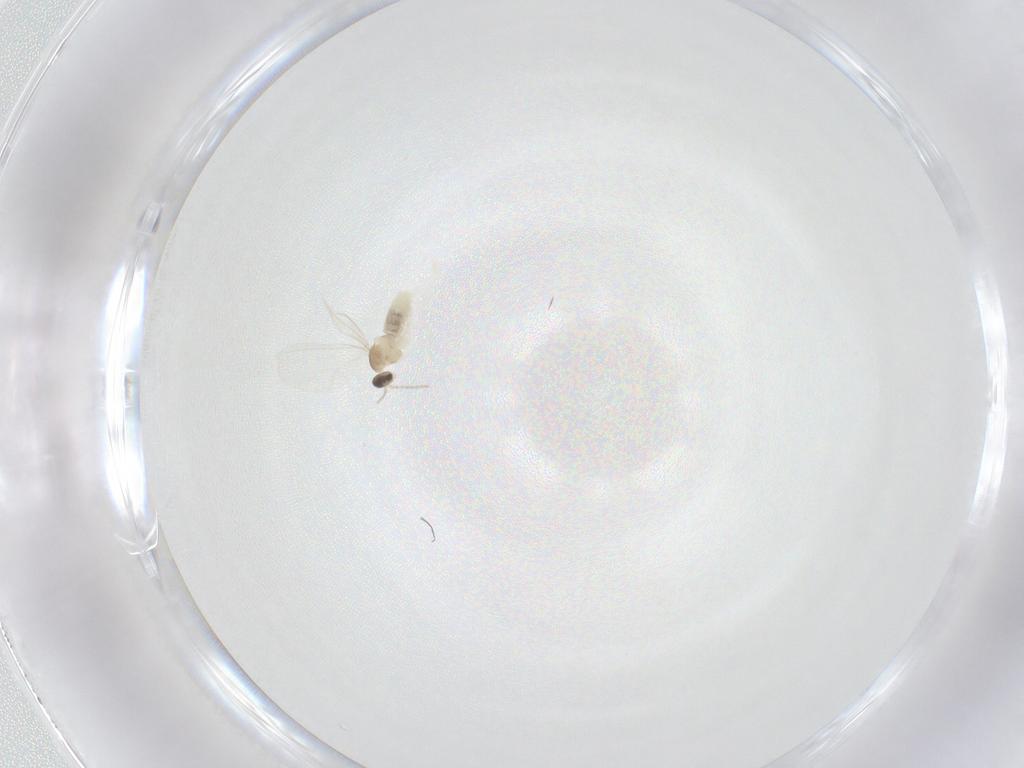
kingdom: Animalia
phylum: Arthropoda
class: Insecta
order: Diptera
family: Cecidomyiidae
